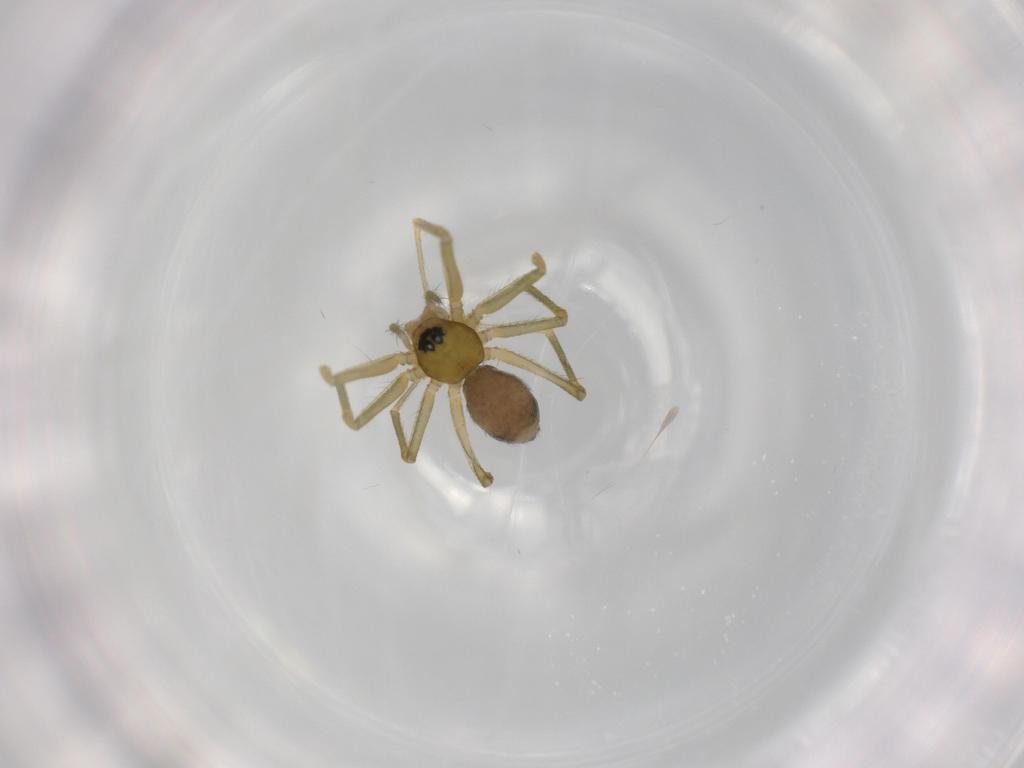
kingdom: Animalia
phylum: Arthropoda
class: Arachnida
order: Araneae
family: Linyphiidae
